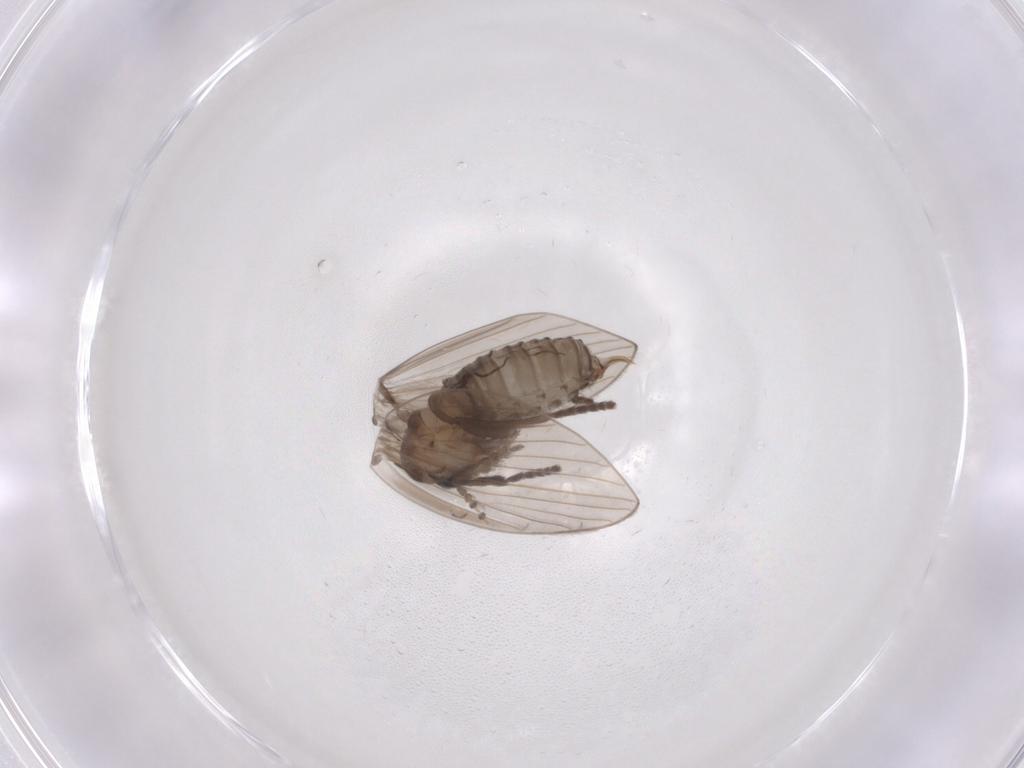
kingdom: Animalia
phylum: Arthropoda
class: Insecta
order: Diptera
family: Psychodidae
